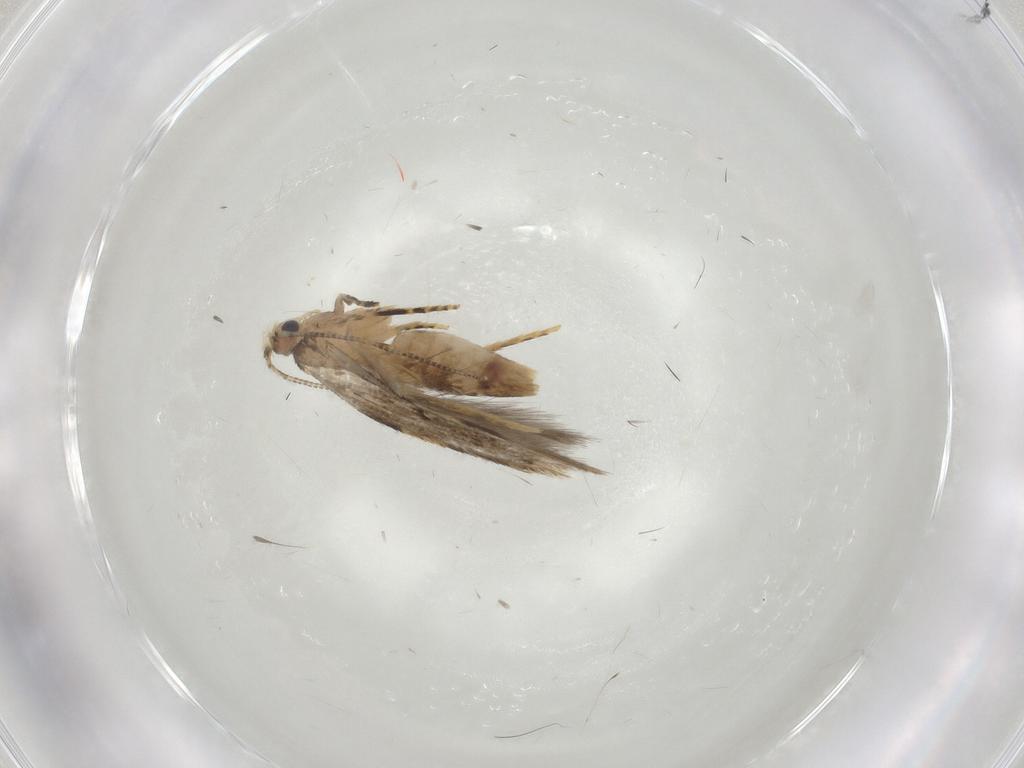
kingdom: Animalia
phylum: Arthropoda
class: Insecta
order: Lepidoptera
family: Tineidae
